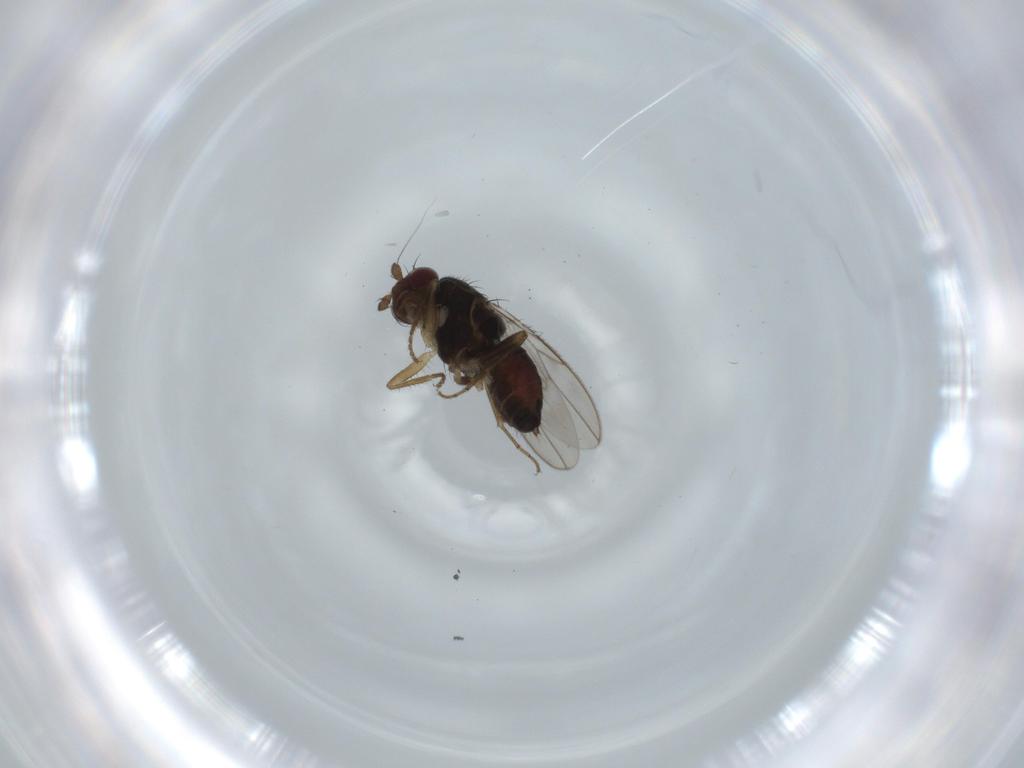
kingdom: Animalia
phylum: Arthropoda
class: Insecta
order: Diptera
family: Sphaeroceridae
